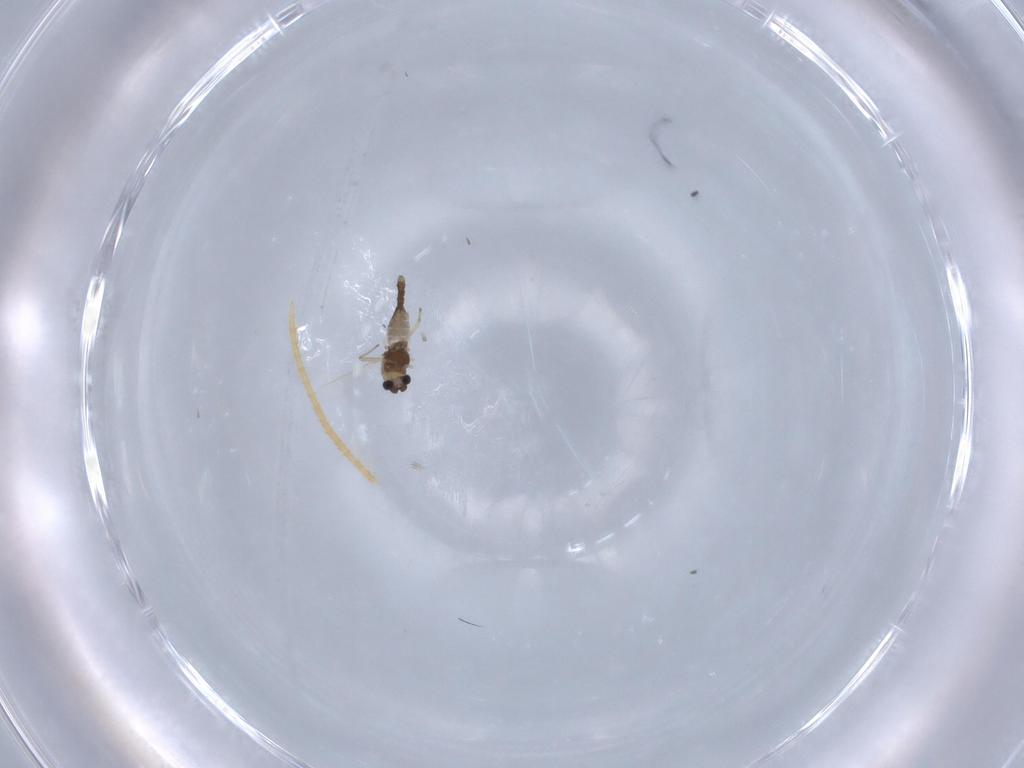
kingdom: Animalia
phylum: Arthropoda
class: Insecta
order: Diptera
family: Chironomidae
